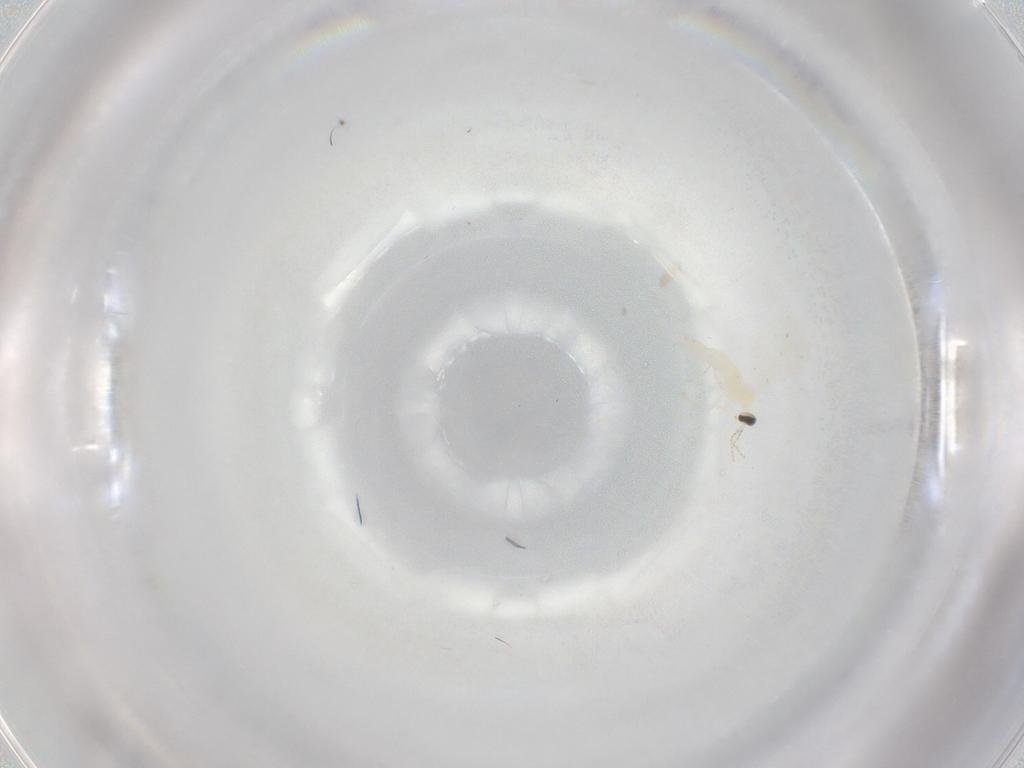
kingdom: Animalia
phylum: Arthropoda
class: Insecta
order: Diptera
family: Cecidomyiidae
